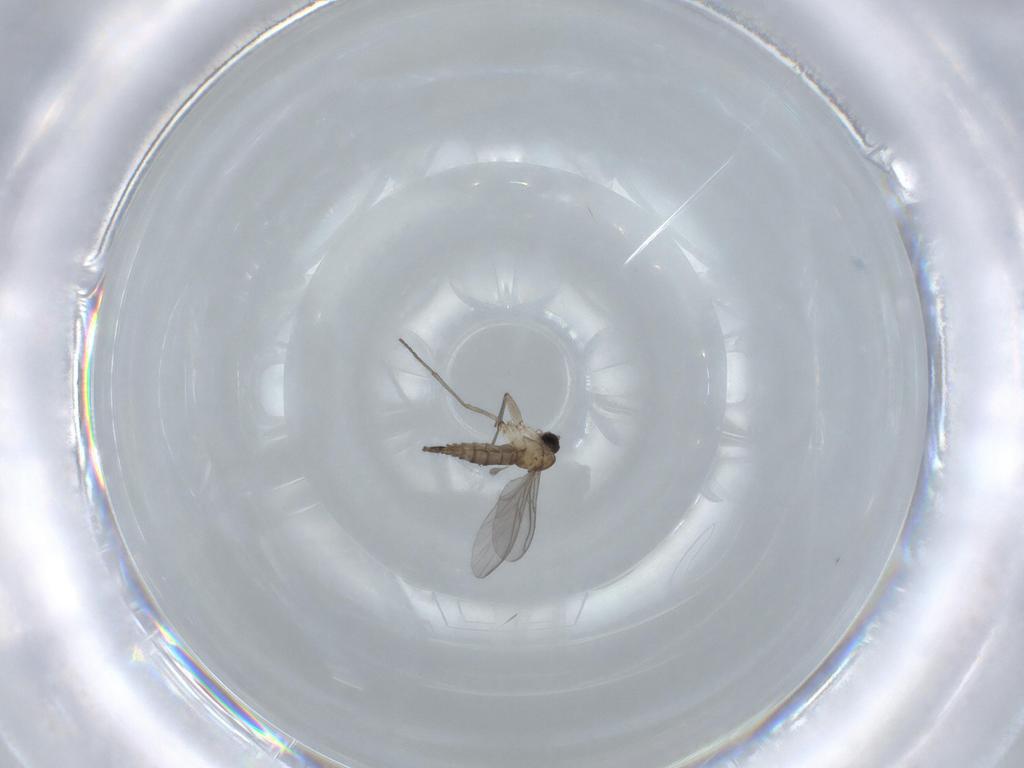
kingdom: Animalia
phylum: Arthropoda
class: Insecta
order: Diptera
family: Sciaridae
